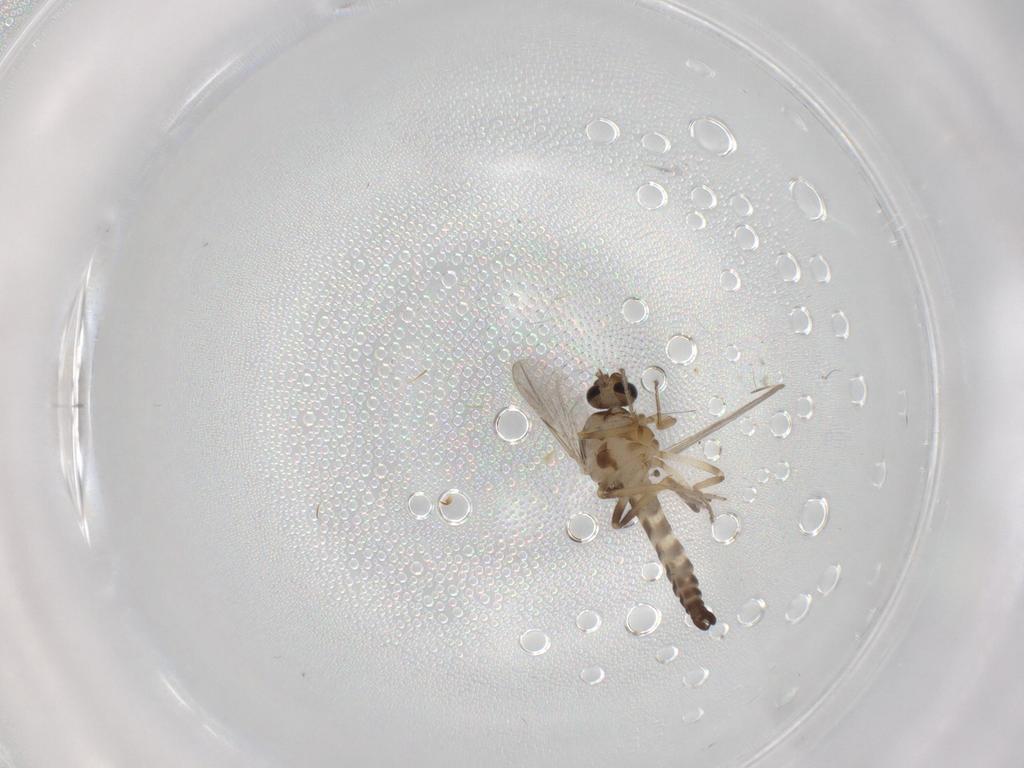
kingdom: Animalia
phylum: Arthropoda
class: Insecta
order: Diptera
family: Ceratopogonidae
